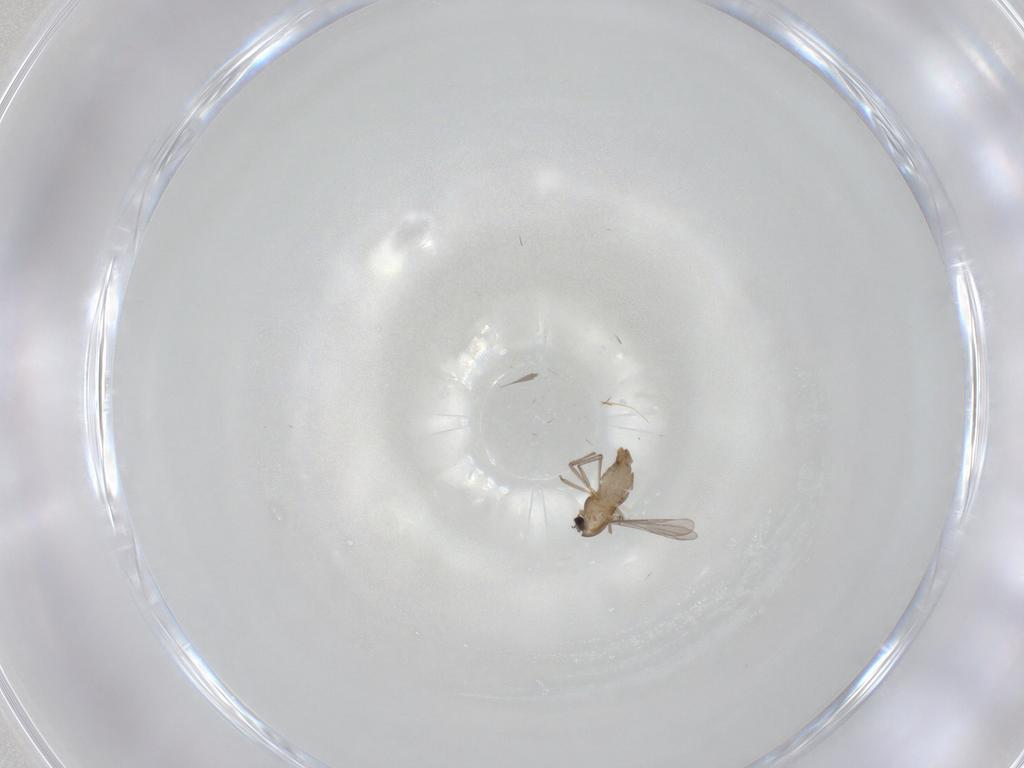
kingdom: Animalia
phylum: Arthropoda
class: Insecta
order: Diptera
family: Chironomidae
